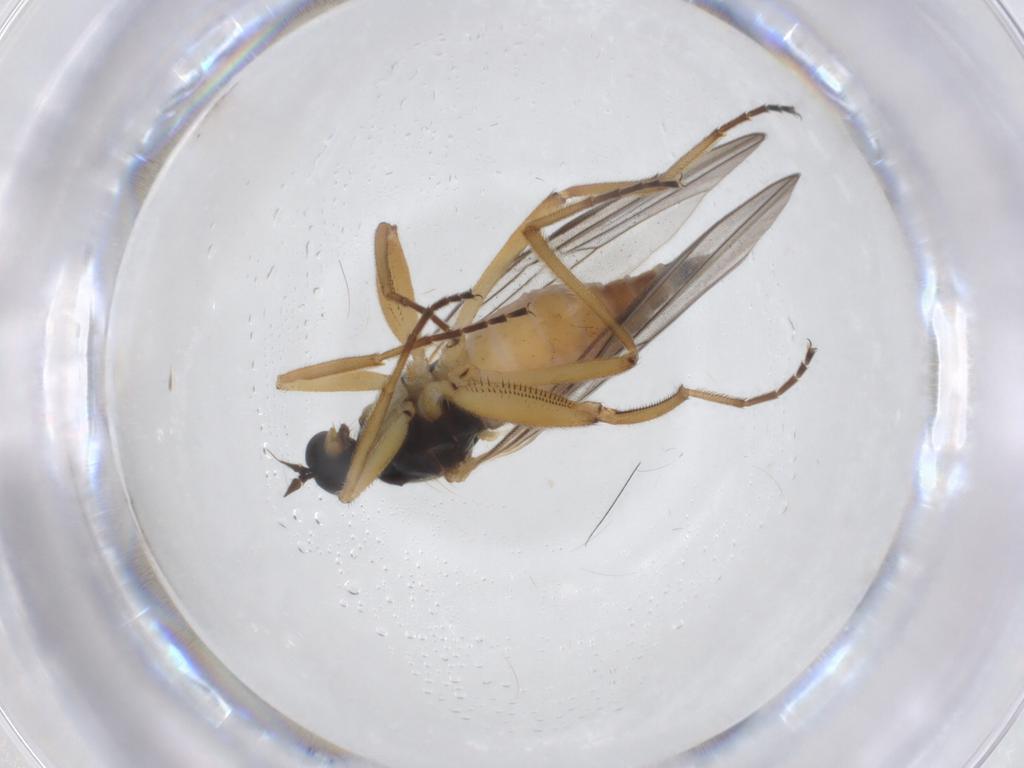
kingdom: Animalia
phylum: Arthropoda
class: Insecta
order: Diptera
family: Hybotidae
